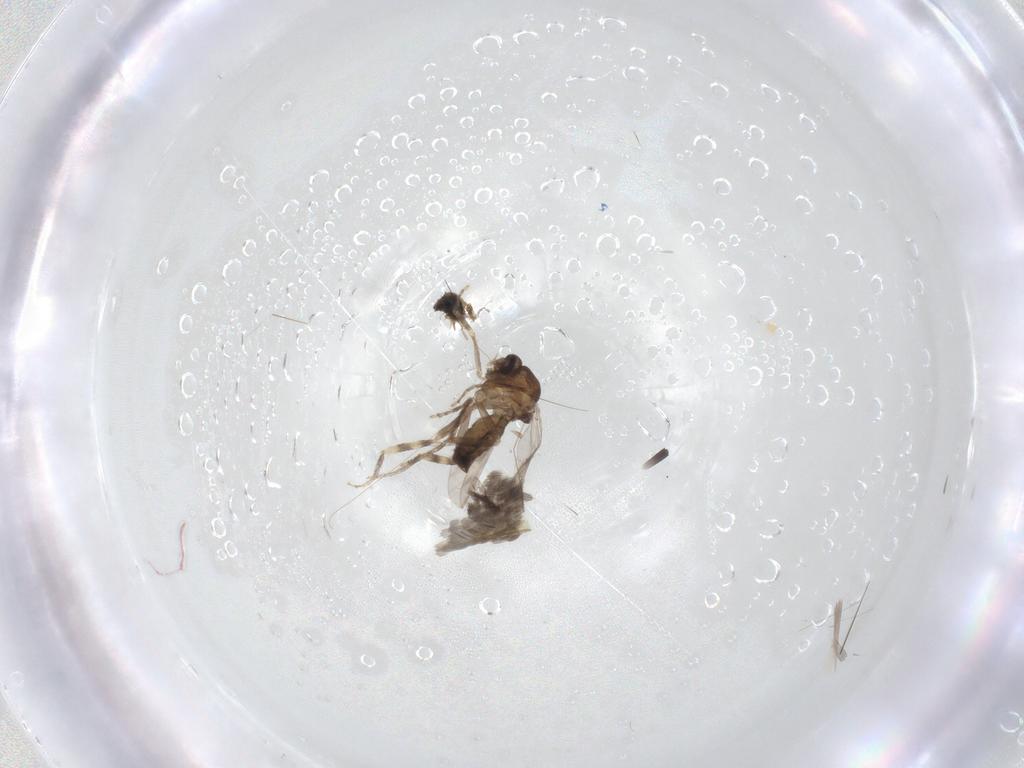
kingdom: Animalia
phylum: Arthropoda
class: Insecta
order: Diptera
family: Ceratopogonidae
